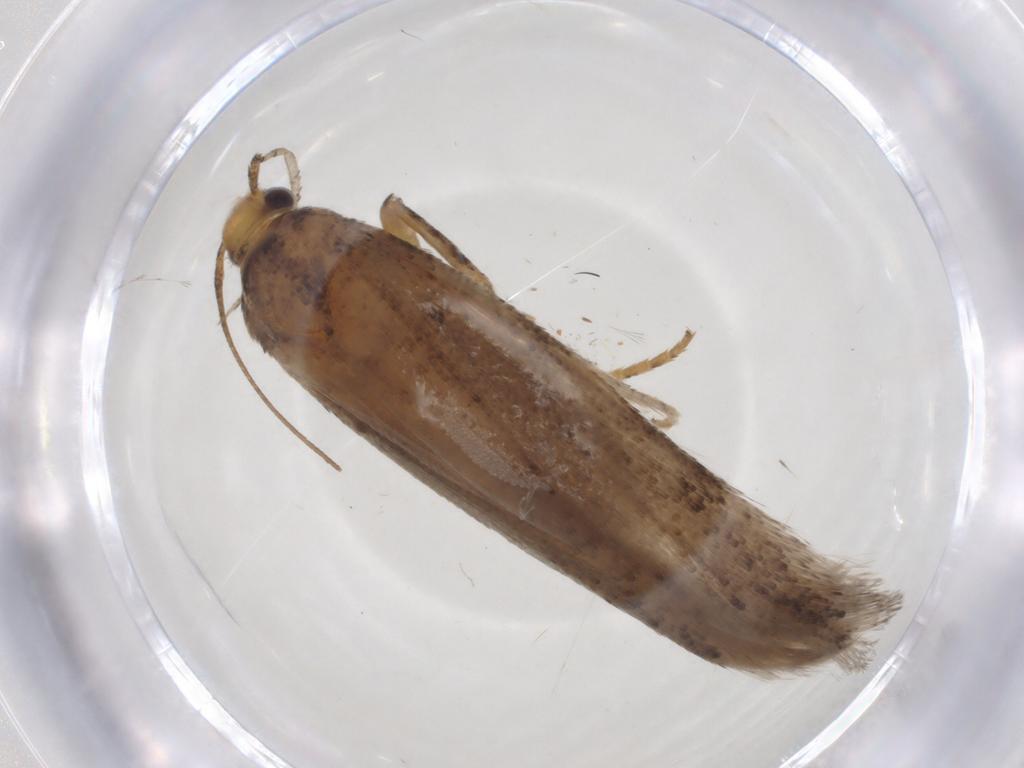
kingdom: Animalia
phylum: Arthropoda
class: Insecta
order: Lepidoptera
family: Gelechiidae
